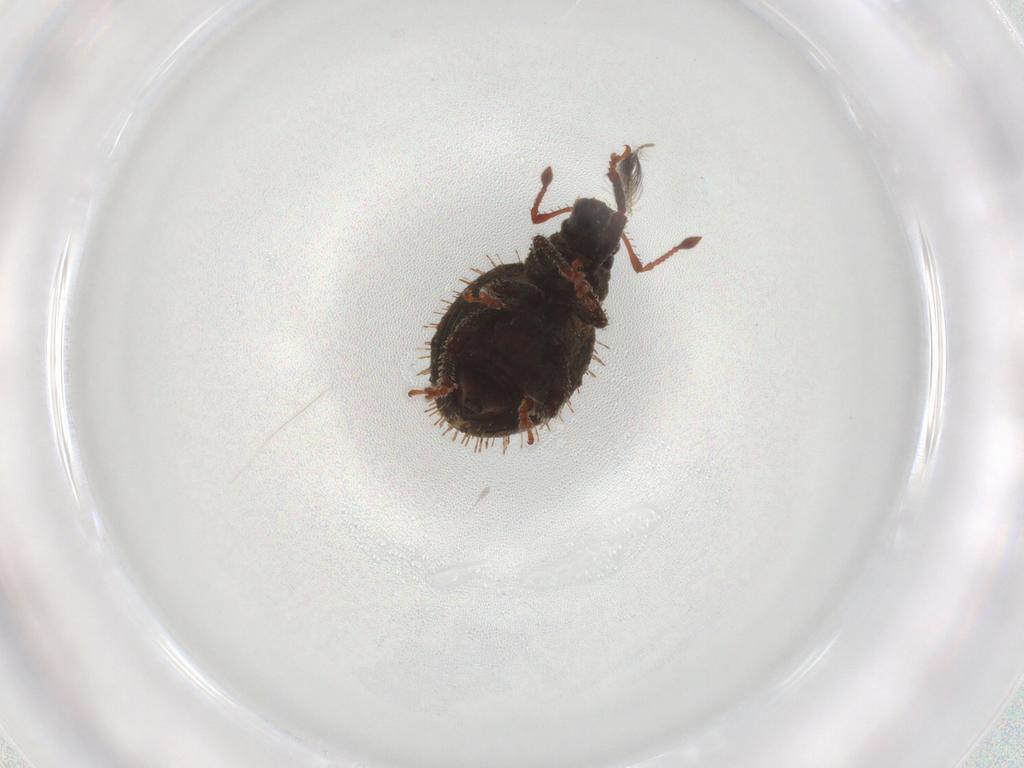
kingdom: Animalia
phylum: Arthropoda
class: Insecta
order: Coleoptera
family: Curculionidae
